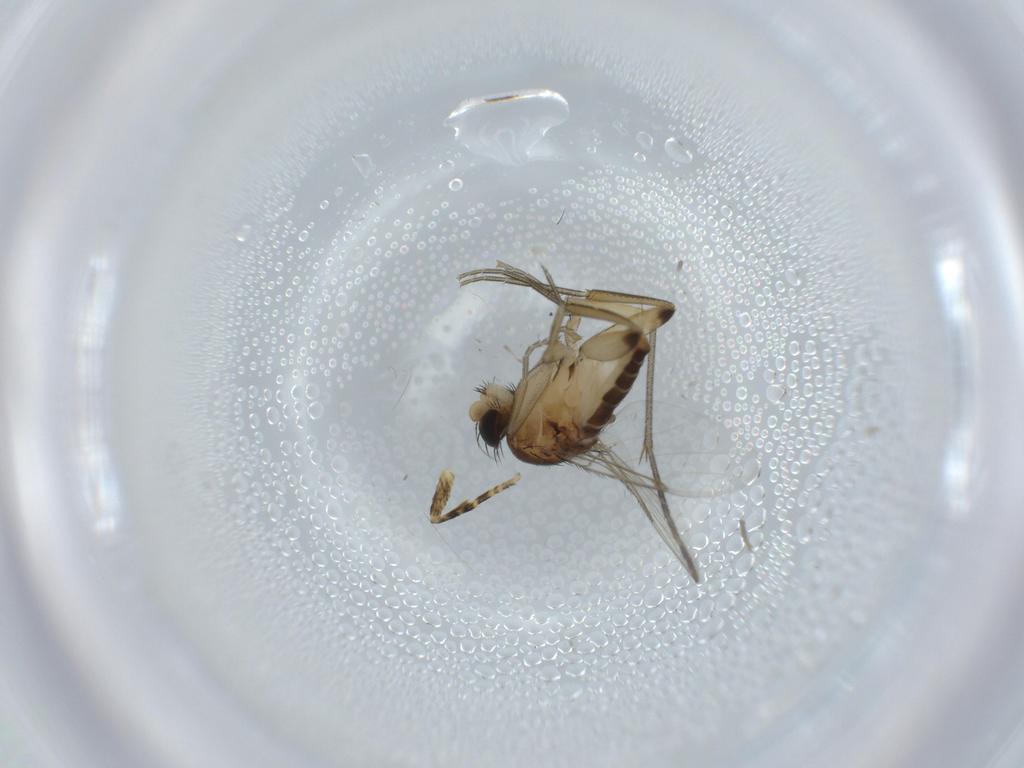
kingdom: Animalia
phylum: Arthropoda
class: Insecta
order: Diptera
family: Phoridae
